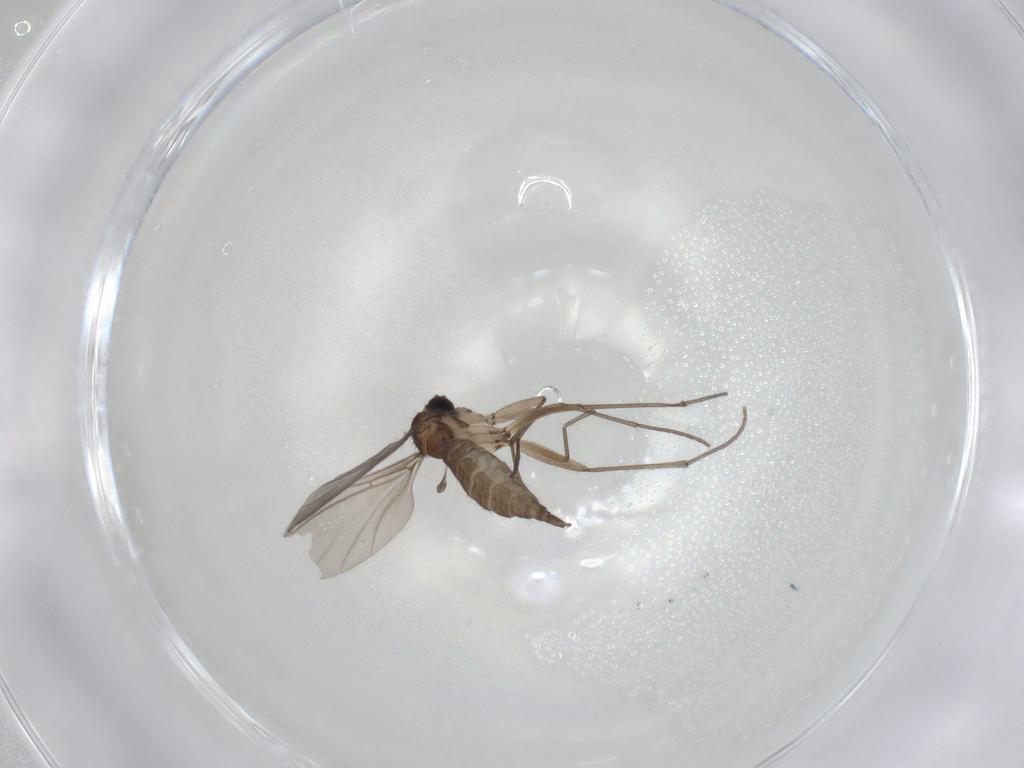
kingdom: Animalia
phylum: Arthropoda
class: Insecta
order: Diptera
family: Sciaridae
